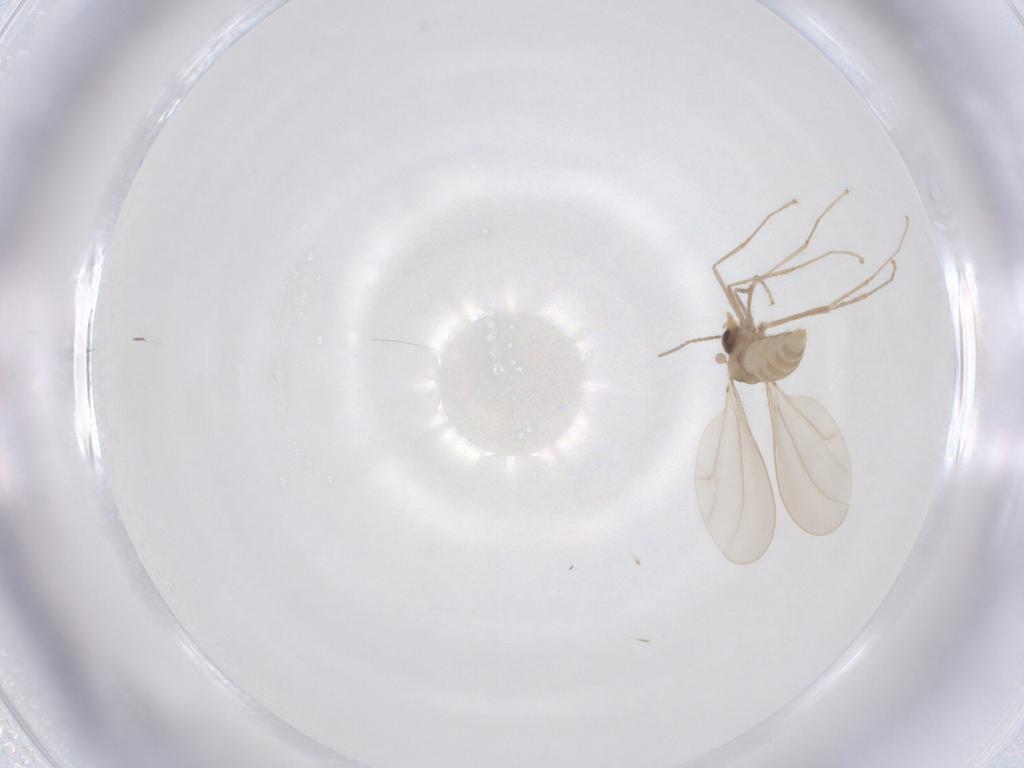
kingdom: Animalia
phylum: Arthropoda
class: Insecta
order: Diptera
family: Cecidomyiidae
